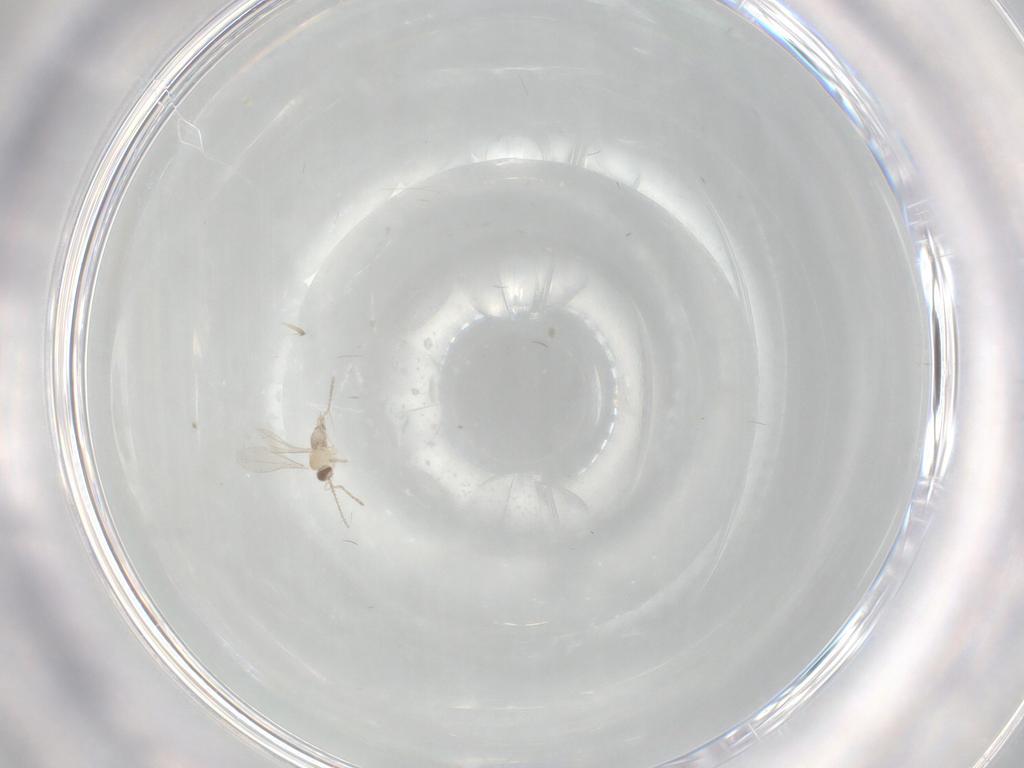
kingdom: Animalia
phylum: Arthropoda
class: Insecta
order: Diptera
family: Cecidomyiidae
